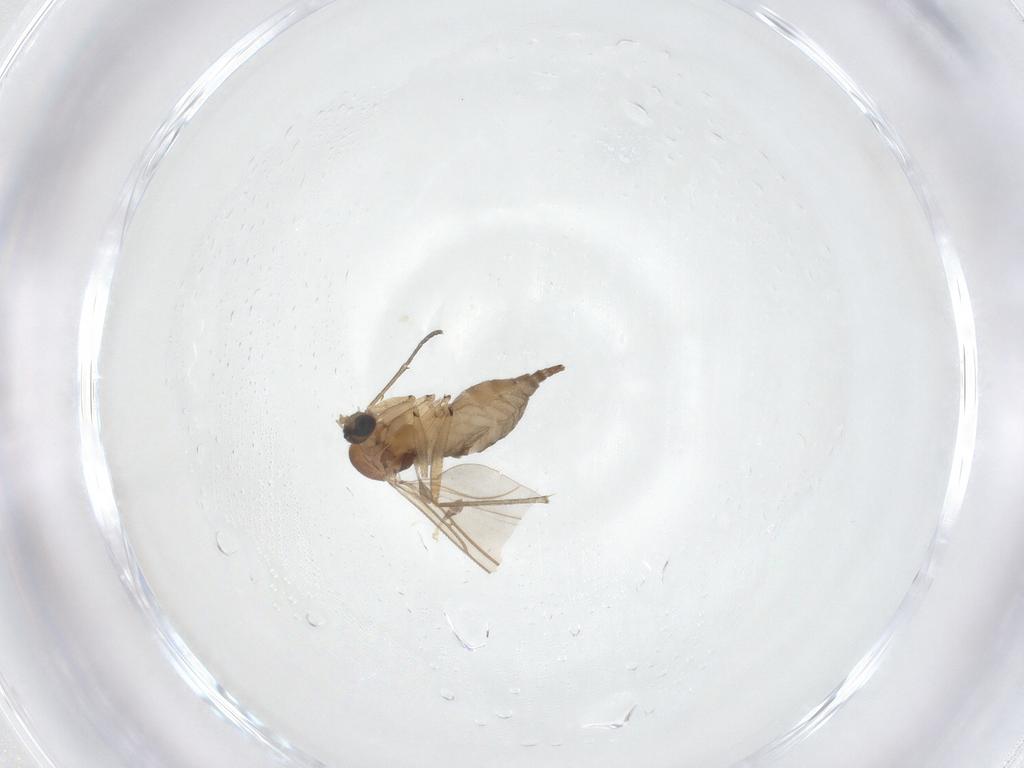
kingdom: Animalia
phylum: Arthropoda
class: Insecta
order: Diptera
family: Sciaridae
